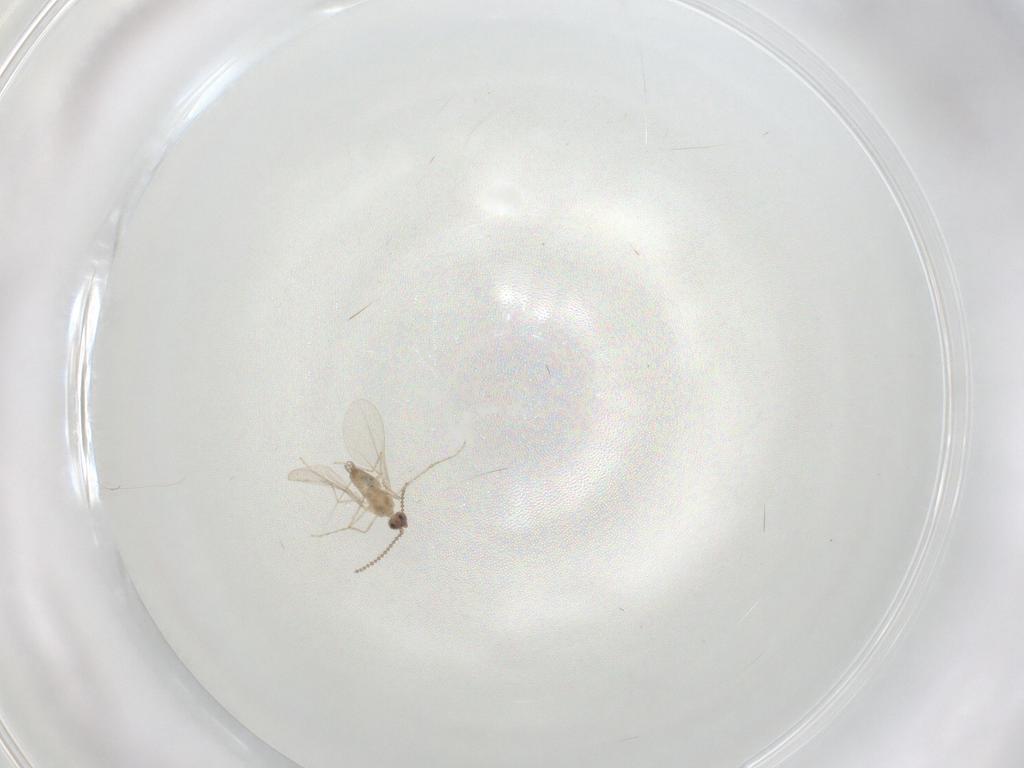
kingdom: Animalia
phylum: Arthropoda
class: Insecta
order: Diptera
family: Cecidomyiidae
